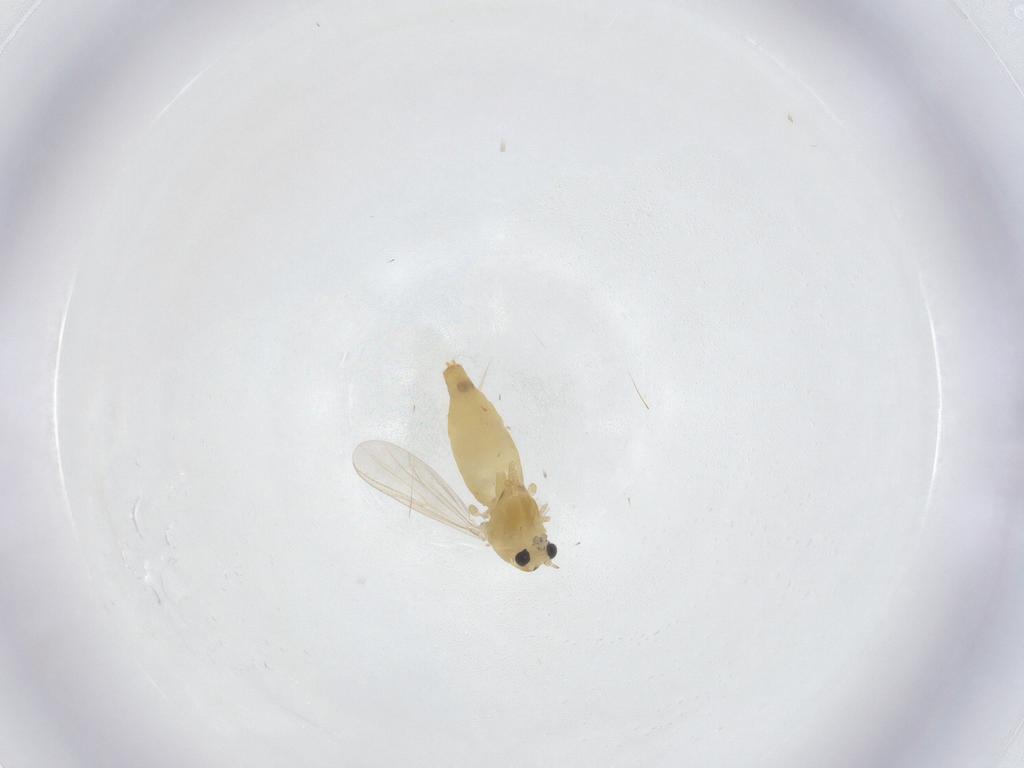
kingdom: Animalia
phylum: Arthropoda
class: Insecta
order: Diptera
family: Chironomidae
